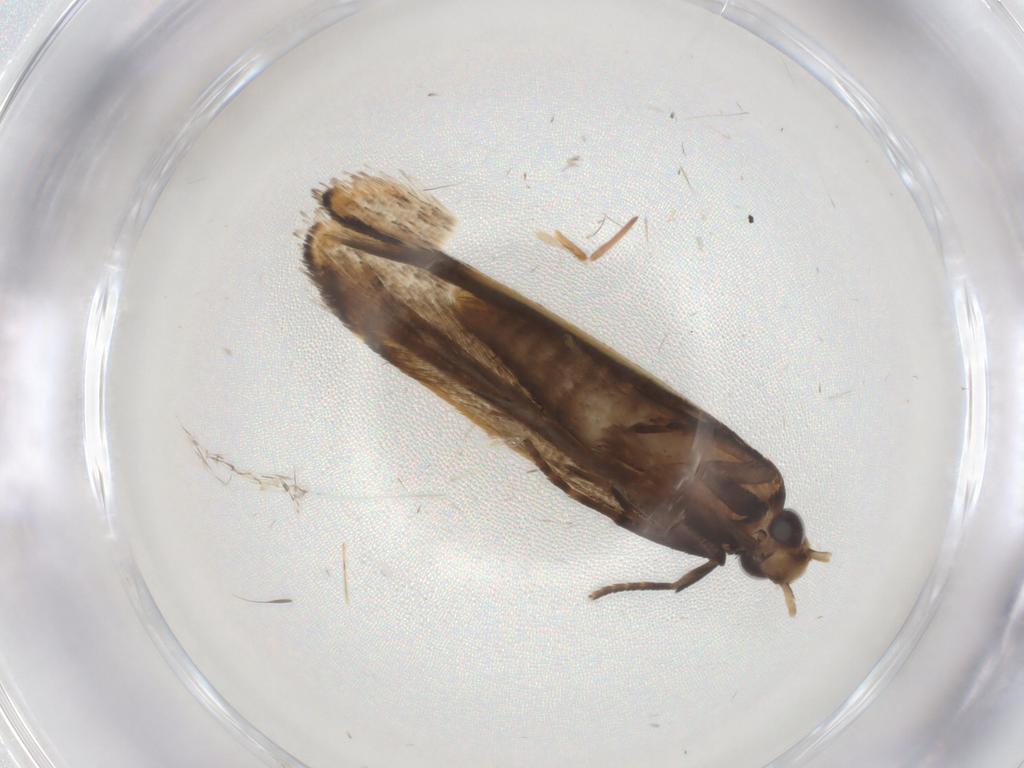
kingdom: Animalia
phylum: Arthropoda
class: Insecta
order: Lepidoptera
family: Gelechiidae
